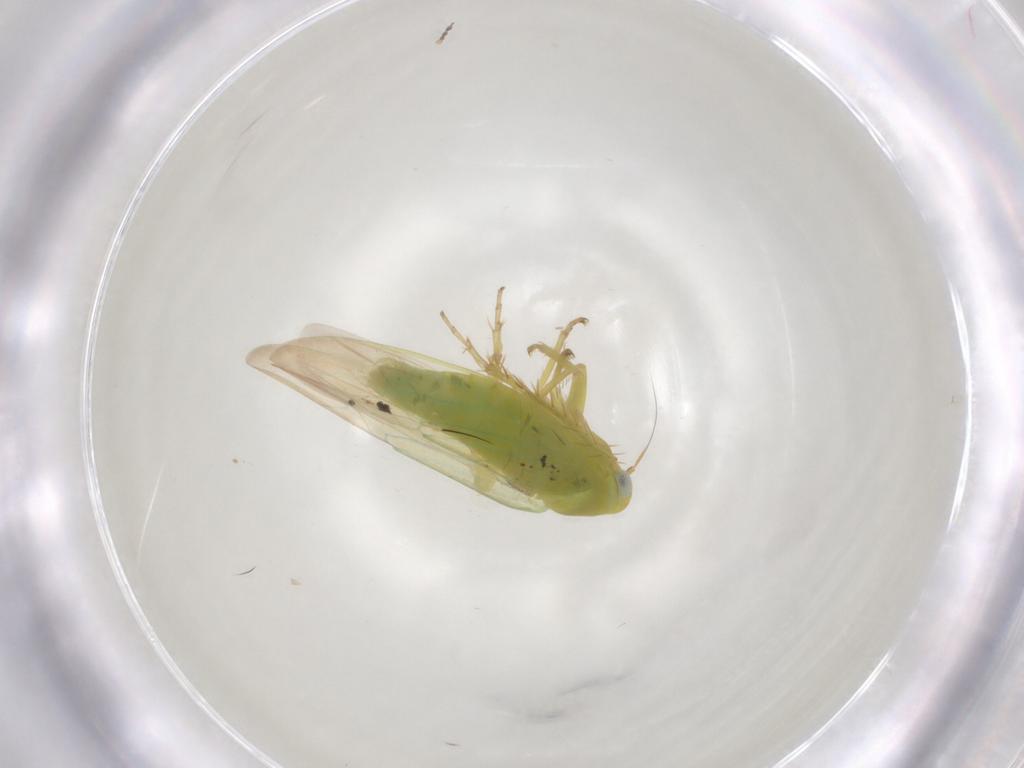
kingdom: Animalia
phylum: Arthropoda
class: Insecta
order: Hemiptera
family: Cicadellidae
